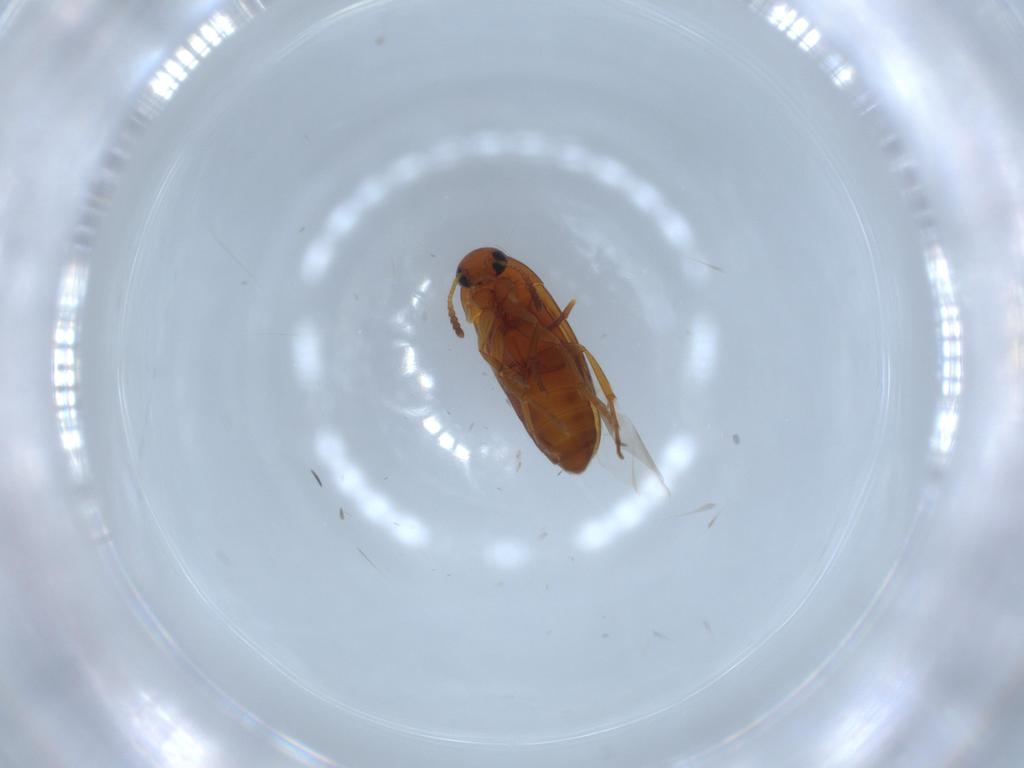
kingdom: Animalia
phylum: Arthropoda
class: Insecta
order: Coleoptera
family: Scraptiidae
